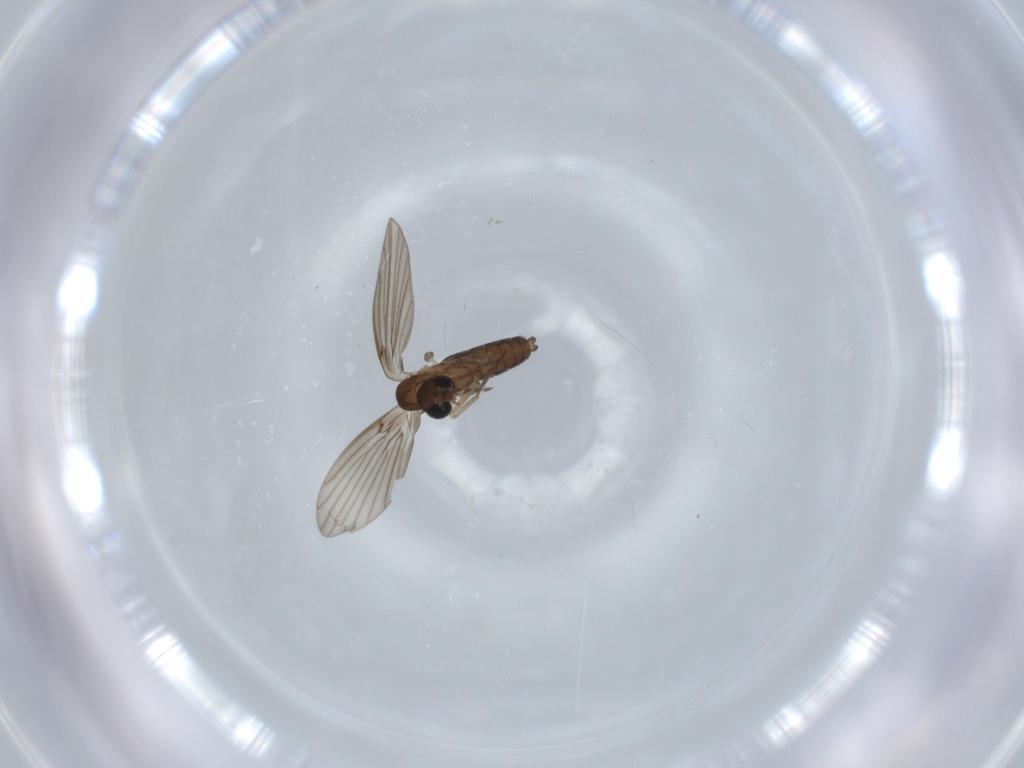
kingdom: Animalia
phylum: Arthropoda
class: Insecta
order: Diptera
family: Psychodidae
